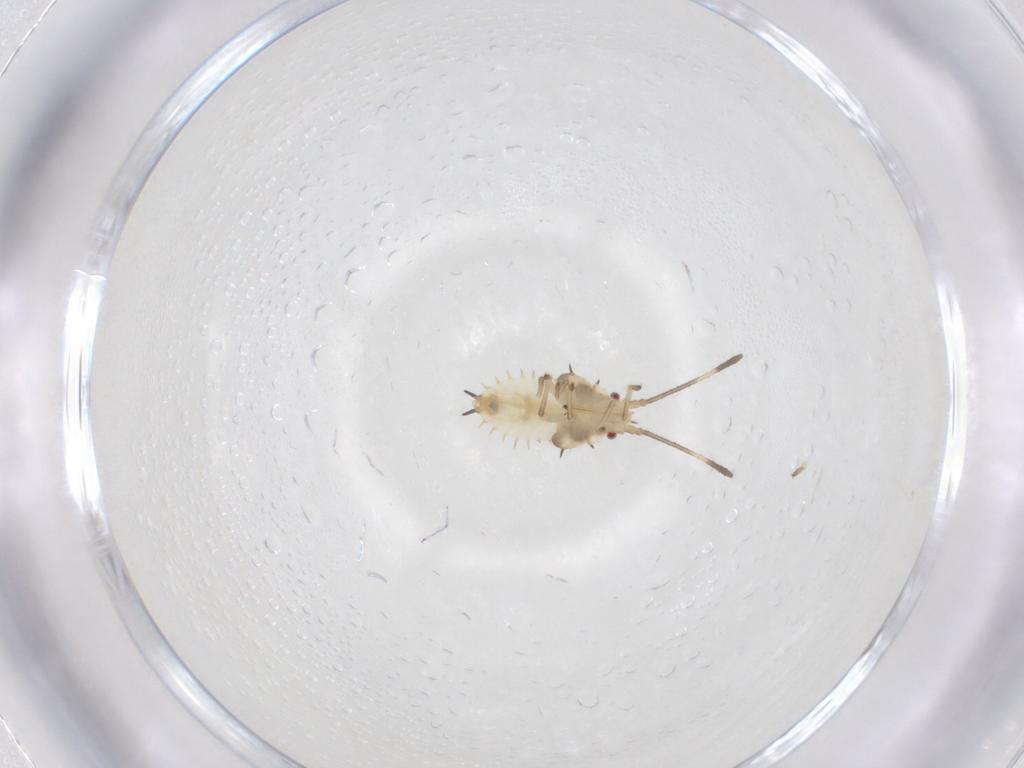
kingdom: Animalia
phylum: Arthropoda
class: Insecta
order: Hemiptera
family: Tingidae
